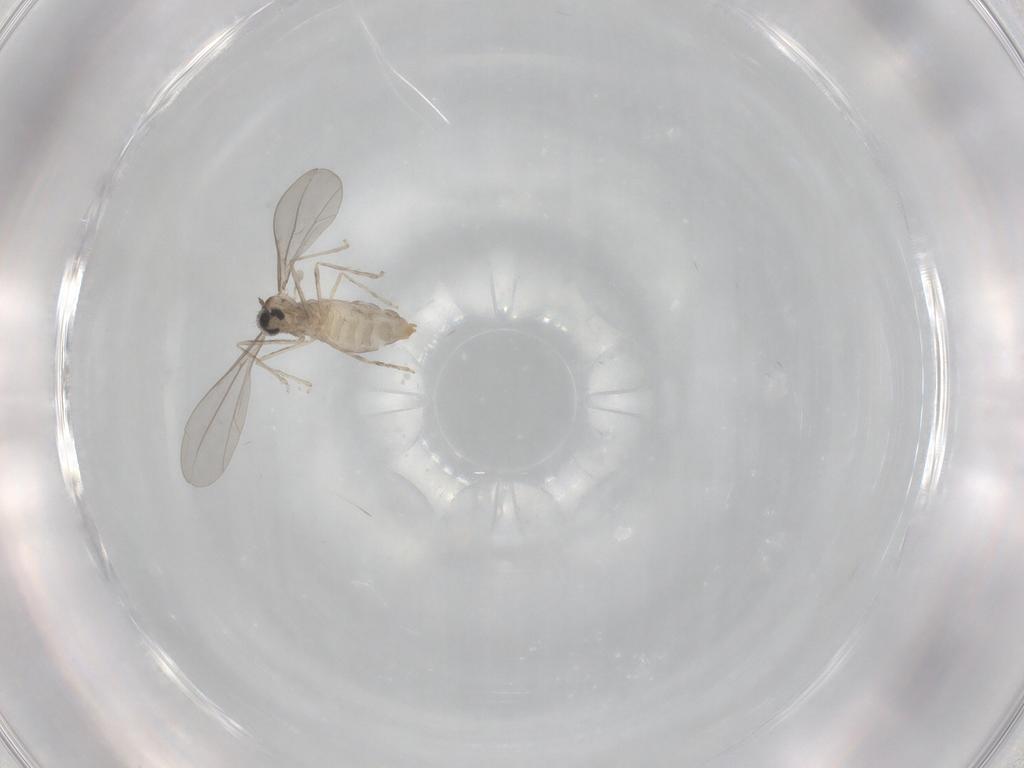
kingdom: Animalia
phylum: Arthropoda
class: Insecta
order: Diptera
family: Cecidomyiidae
